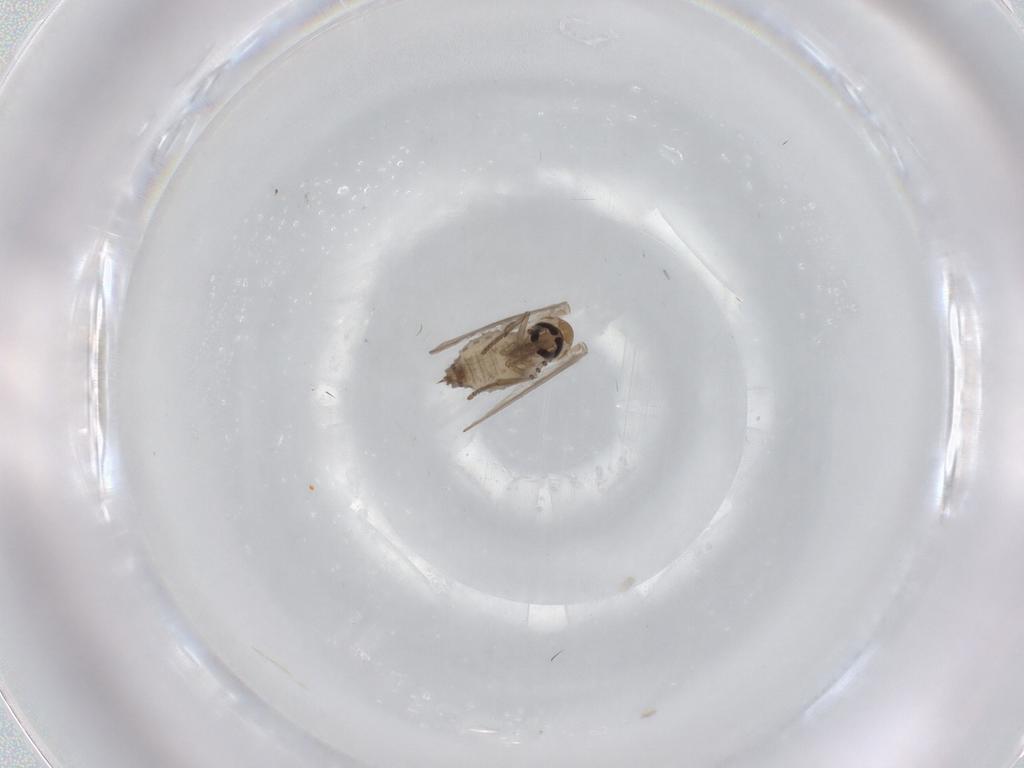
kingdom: Animalia
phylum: Arthropoda
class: Insecta
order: Diptera
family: Psychodidae
